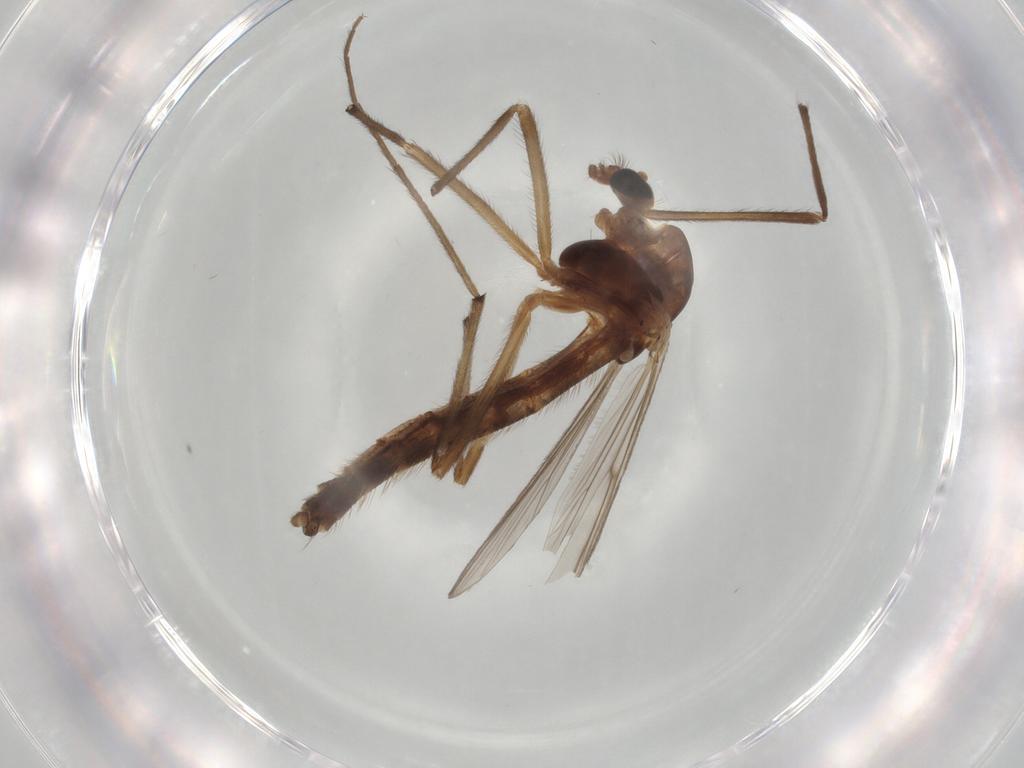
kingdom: Animalia
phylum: Arthropoda
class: Insecta
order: Diptera
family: Chironomidae
